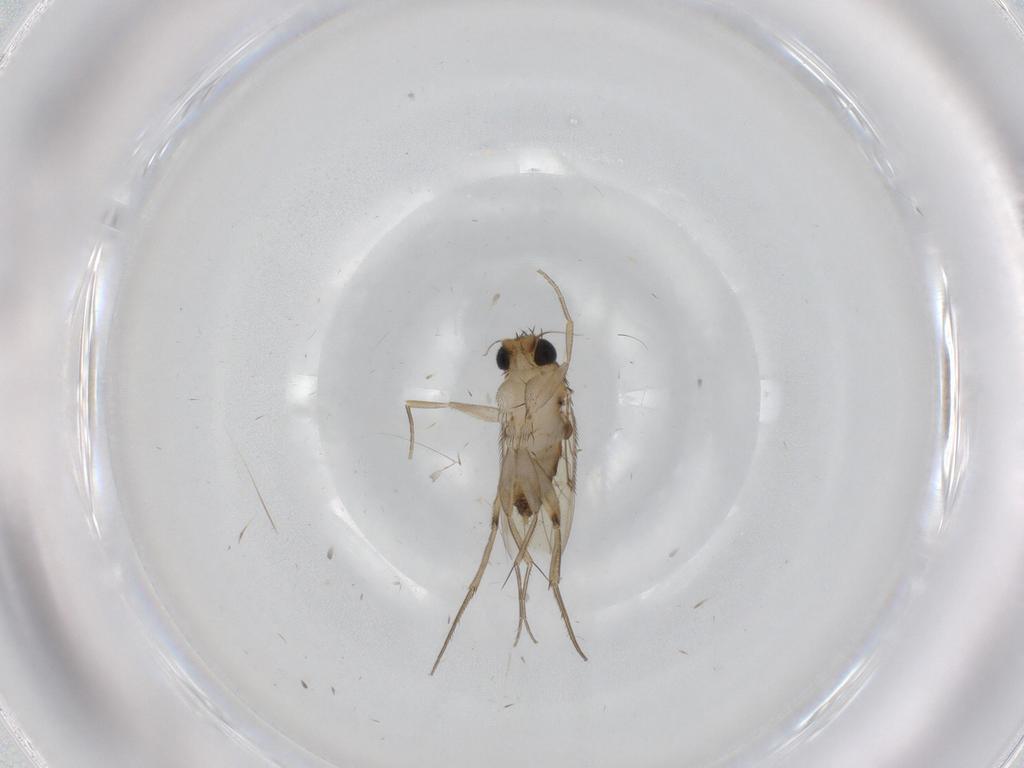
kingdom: Animalia
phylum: Arthropoda
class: Insecta
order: Diptera
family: Phoridae
